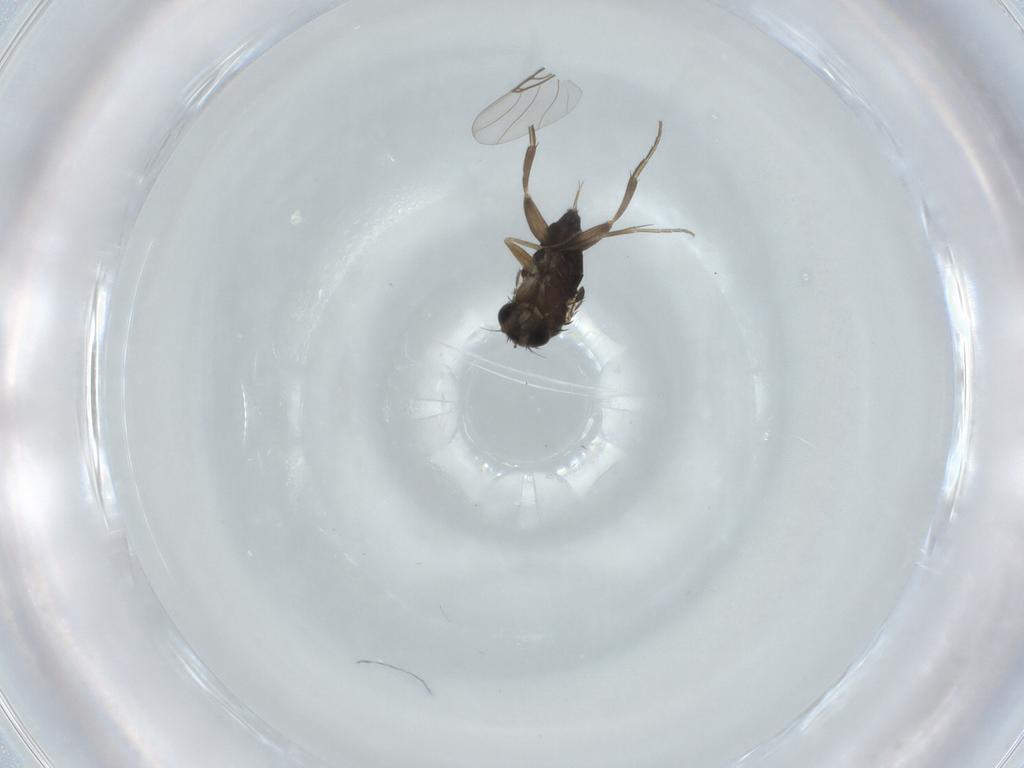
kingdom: Animalia
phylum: Arthropoda
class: Insecta
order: Diptera
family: Phoridae
